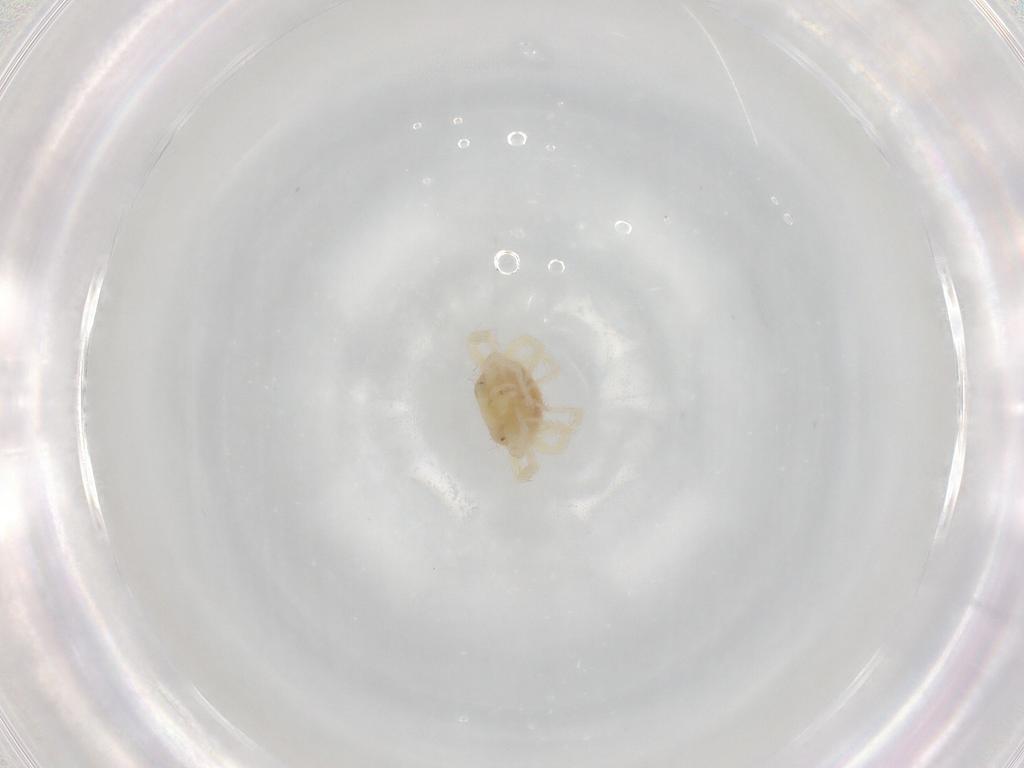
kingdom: Animalia
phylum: Arthropoda
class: Arachnida
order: Trombidiformes
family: Anystidae
